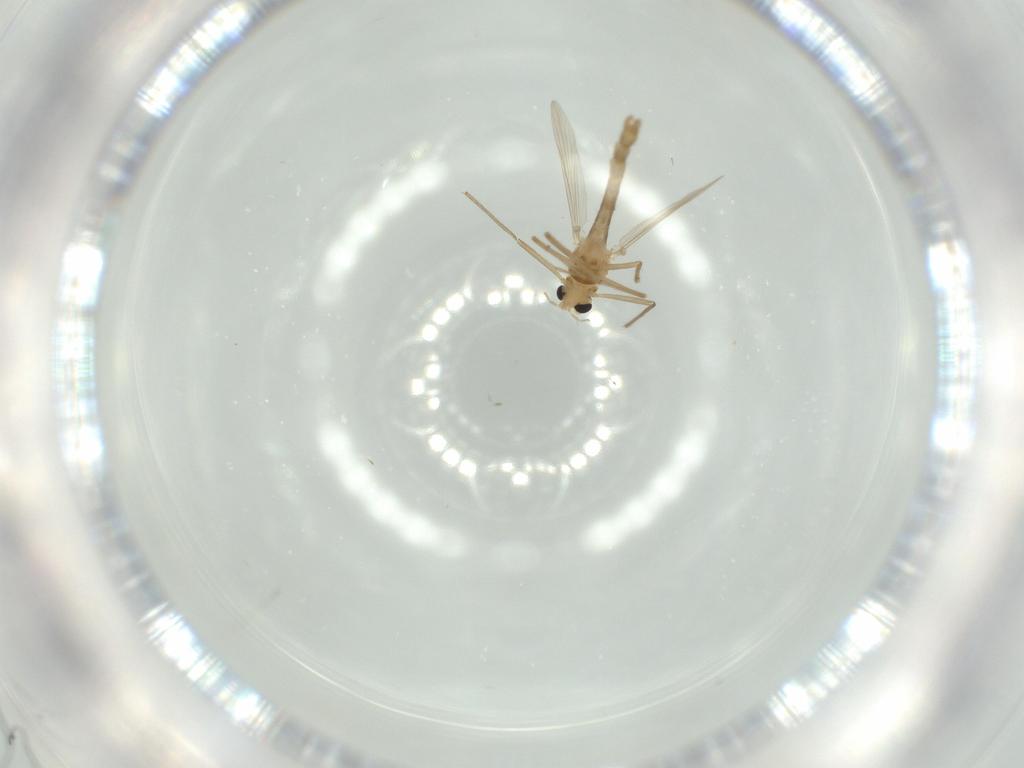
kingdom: Animalia
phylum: Arthropoda
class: Insecta
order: Diptera
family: Chironomidae
